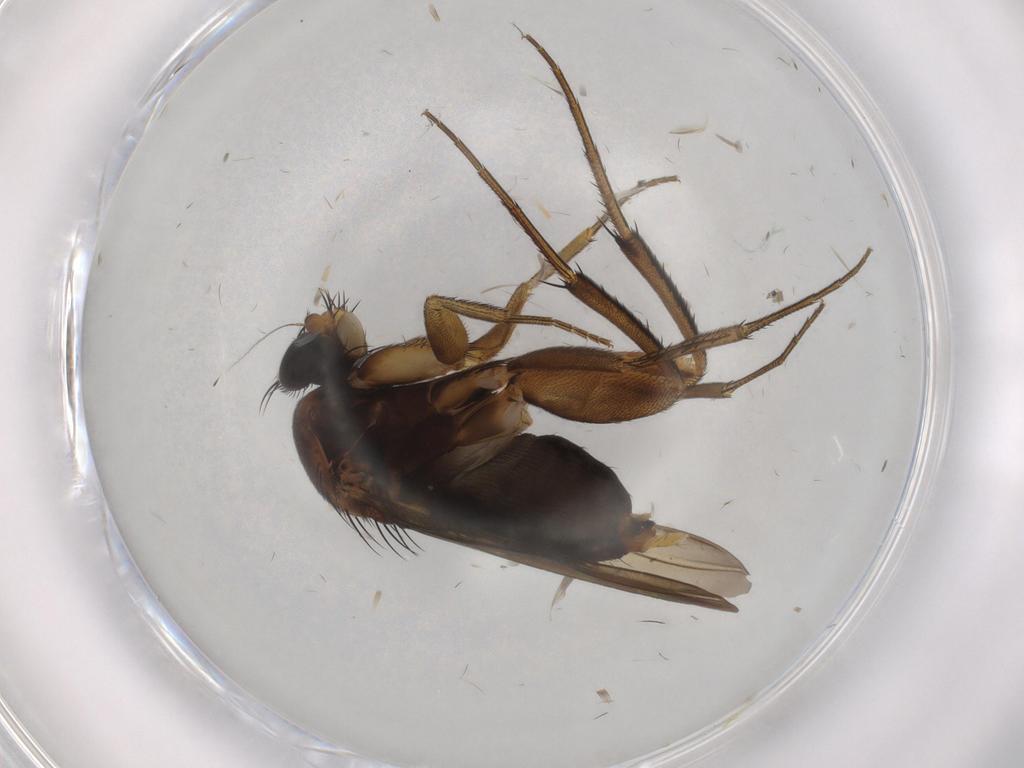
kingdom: Animalia
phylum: Arthropoda
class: Insecta
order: Diptera
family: Phoridae
